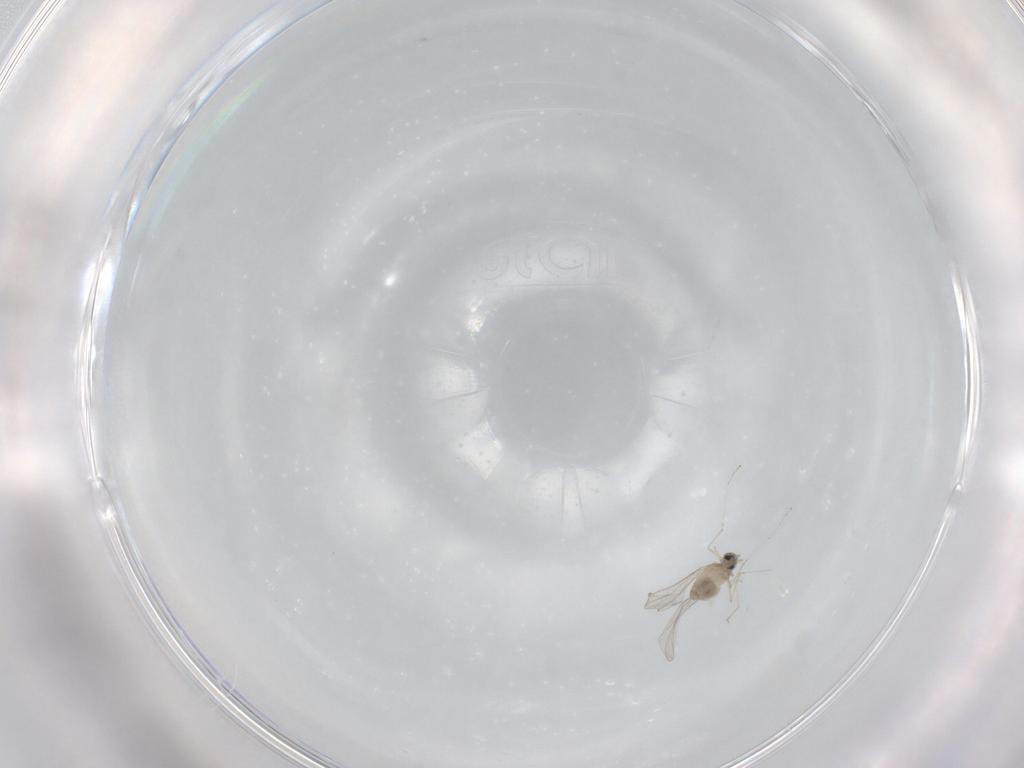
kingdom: Animalia
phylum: Arthropoda
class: Insecta
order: Diptera
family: Cecidomyiidae
